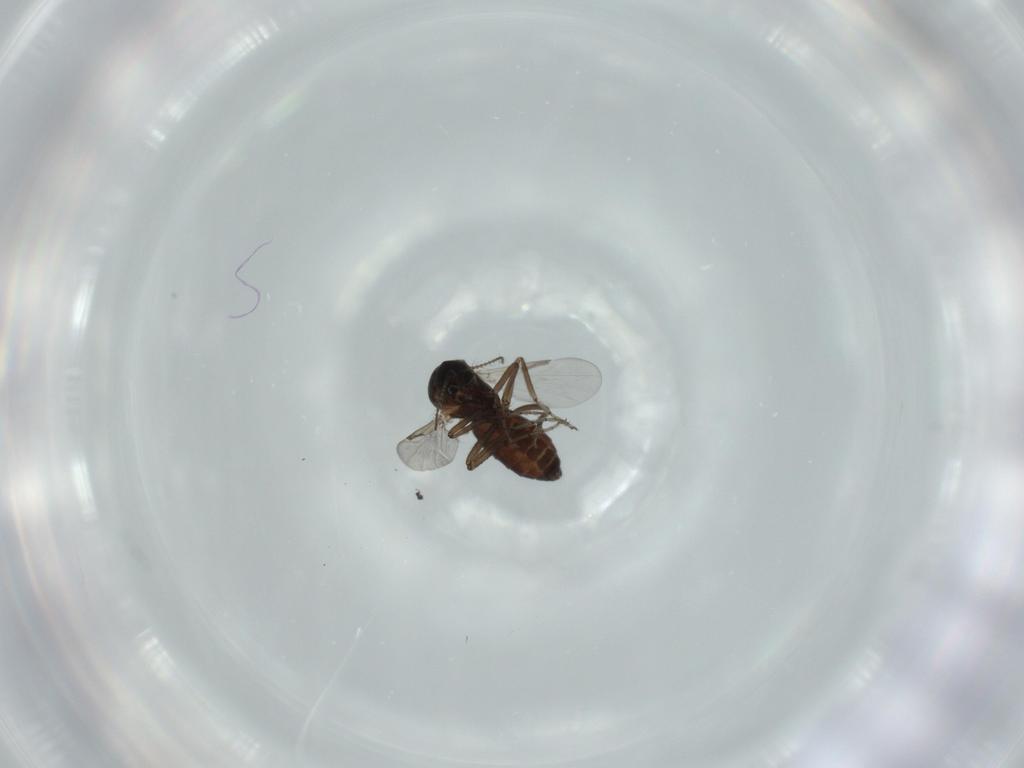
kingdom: Animalia
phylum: Arthropoda
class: Insecta
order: Diptera
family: Ceratopogonidae
